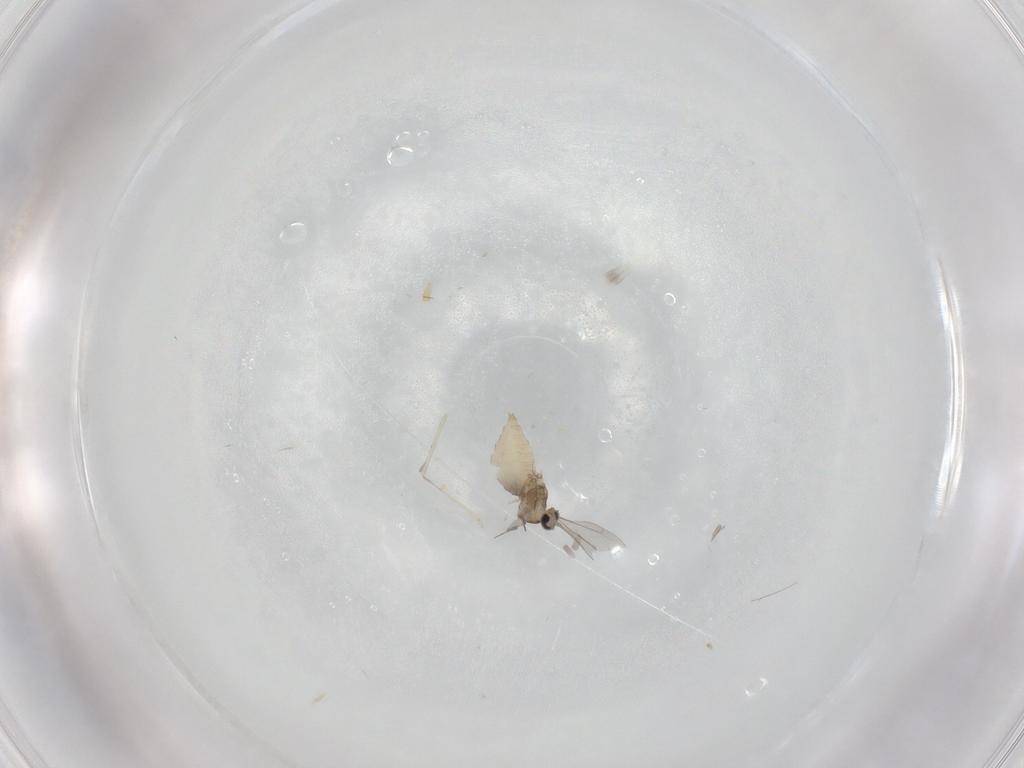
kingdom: Animalia
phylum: Arthropoda
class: Insecta
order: Diptera
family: Cecidomyiidae
